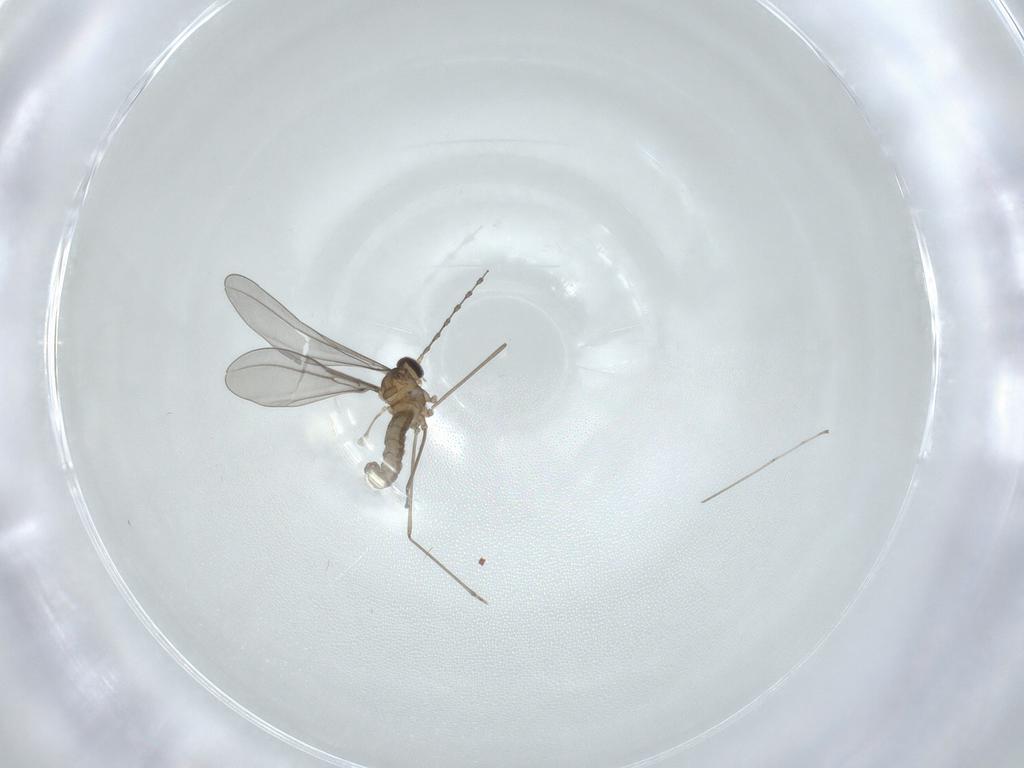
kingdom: Animalia
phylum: Arthropoda
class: Insecta
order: Diptera
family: Cecidomyiidae
